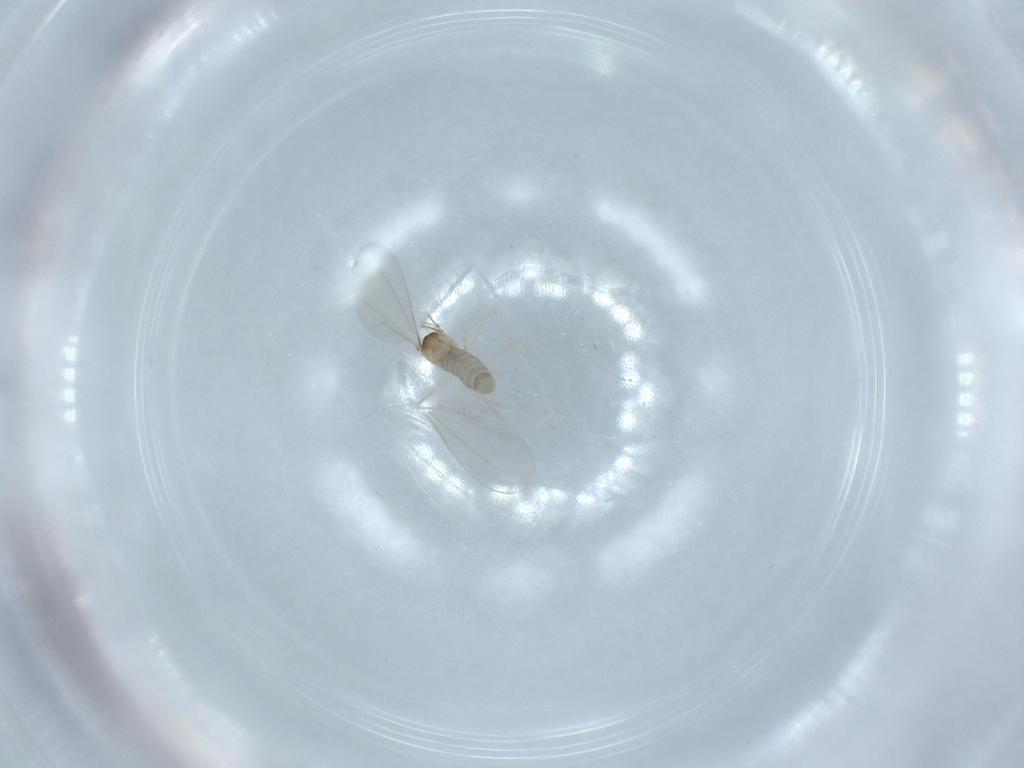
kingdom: Animalia
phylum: Arthropoda
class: Insecta
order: Diptera
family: Cecidomyiidae
